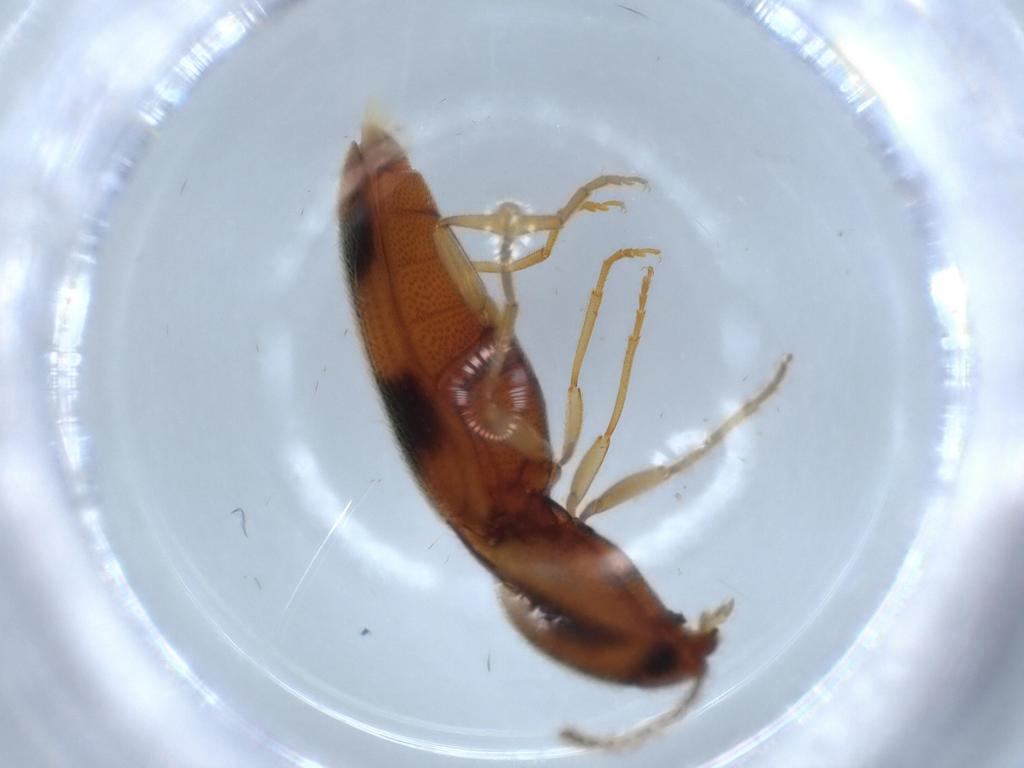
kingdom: Animalia
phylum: Arthropoda
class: Insecta
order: Coleoptera
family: Elateridae
